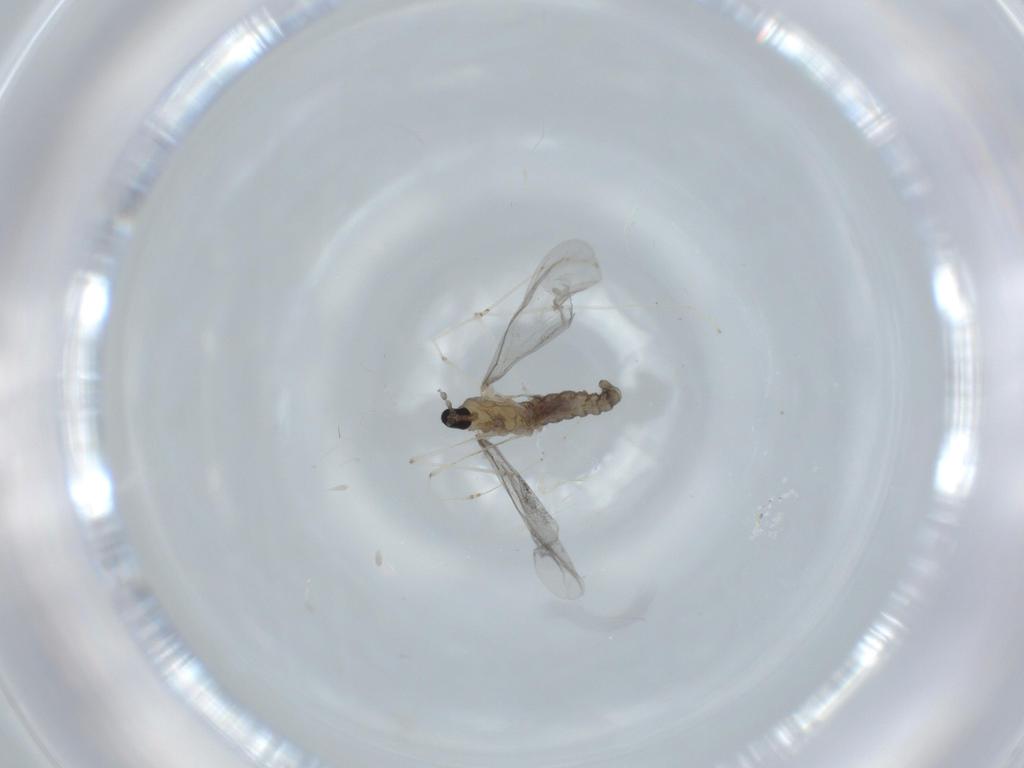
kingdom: Animalia
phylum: Arthropoda
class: Insecta
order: Diptera
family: Cecidomyiidae
